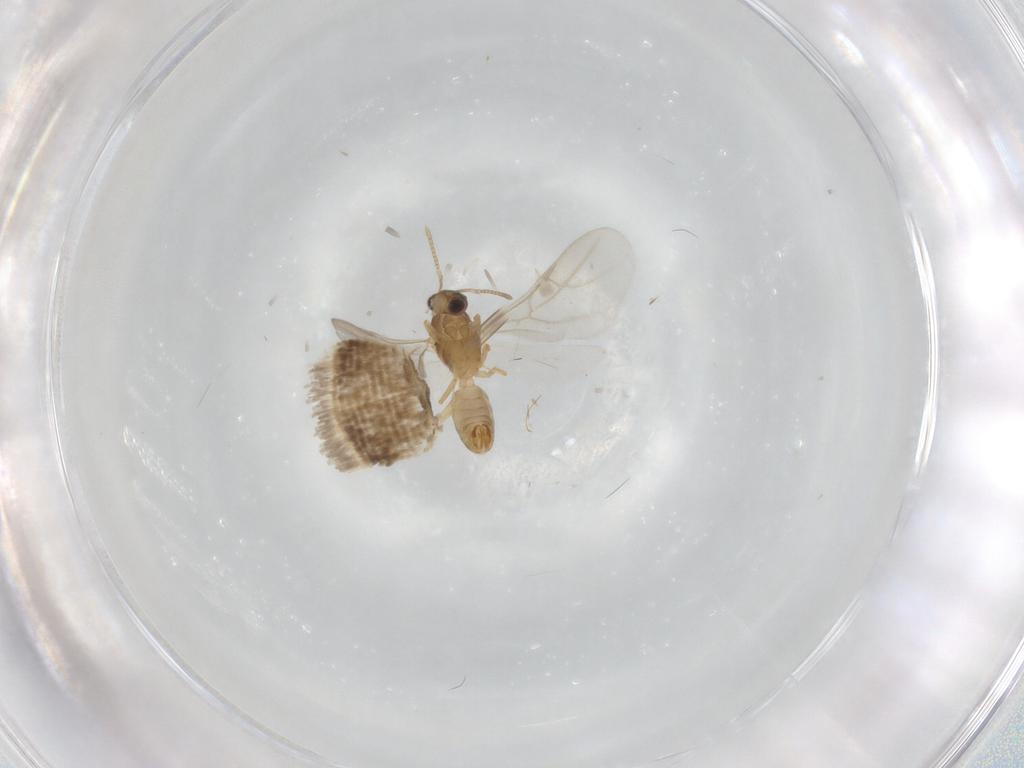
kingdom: Animalia
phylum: Arthropoda
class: Insecta
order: Hymenoptera
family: Formicidae
